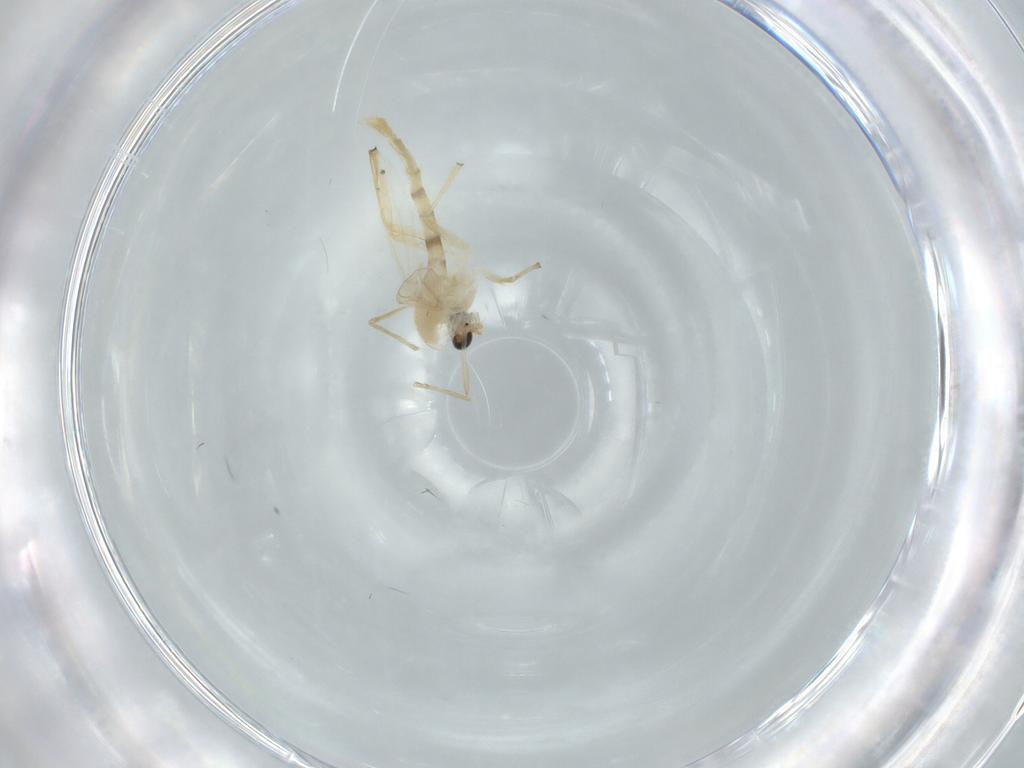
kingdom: Animalia
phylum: Arthropoda
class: Insecta
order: Diptera
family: Chironomidae
